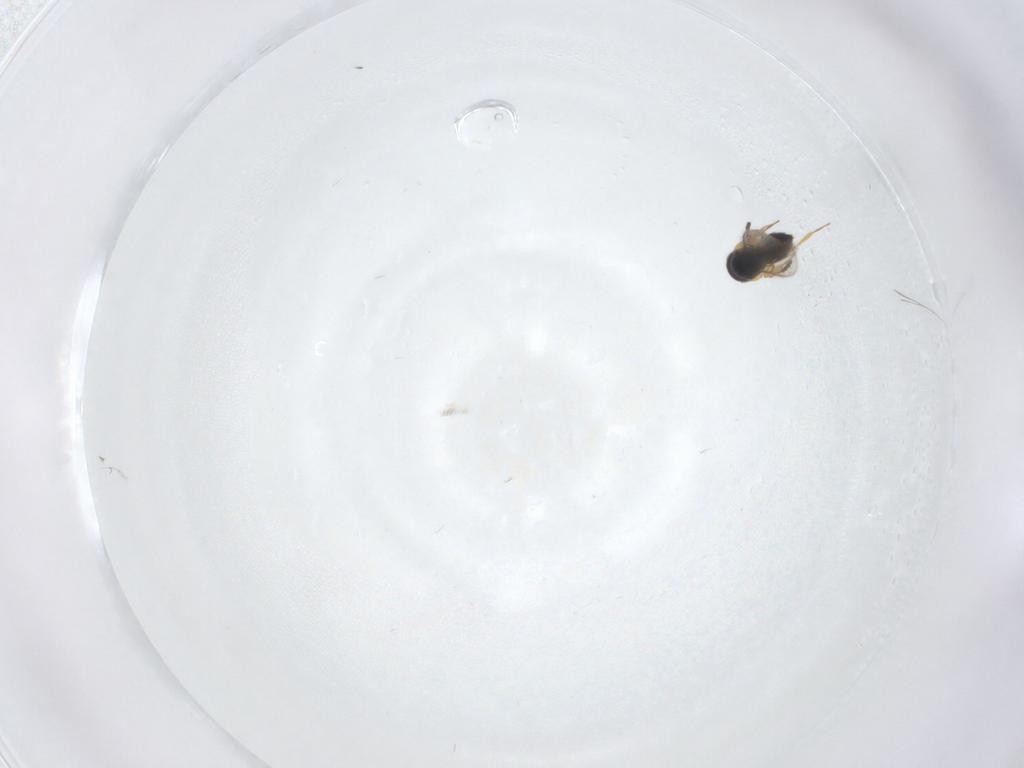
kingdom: Animalia
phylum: Arthropoda
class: Insecta
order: Hymenoptera
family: Scelionidae
